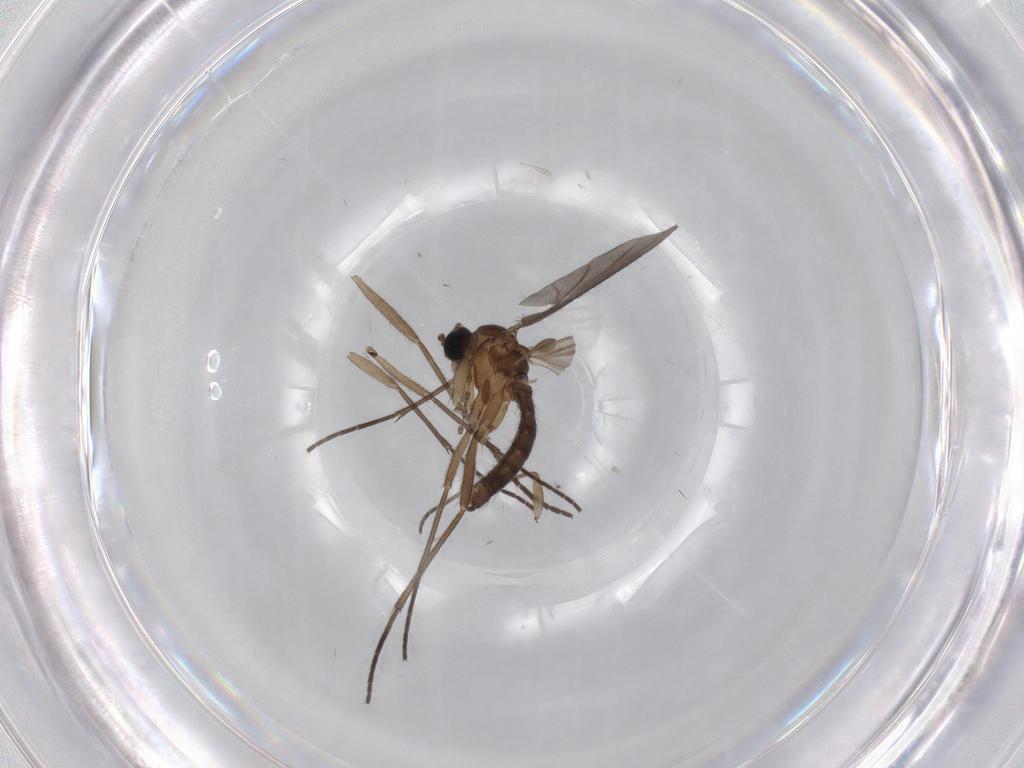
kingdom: Animalia
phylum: Arthropoda
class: Insecta
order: Diptera
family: Sciaridae
